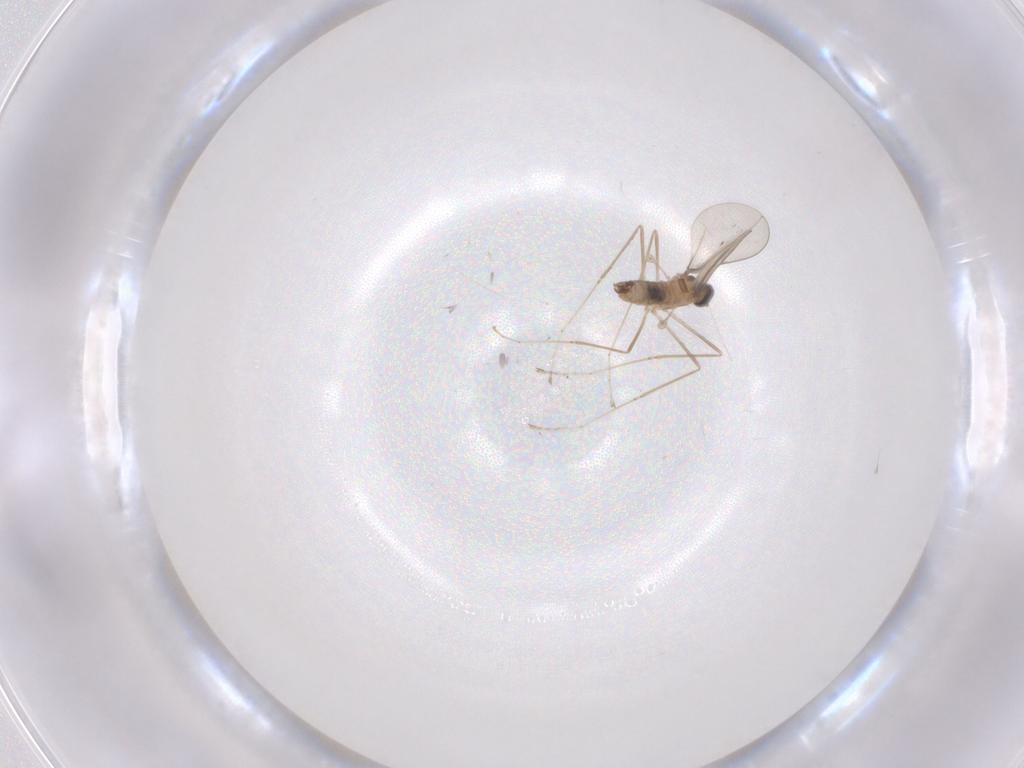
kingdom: Animalia
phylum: Arthropoda
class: Insecta
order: Diptera
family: Cecidomyiidae
